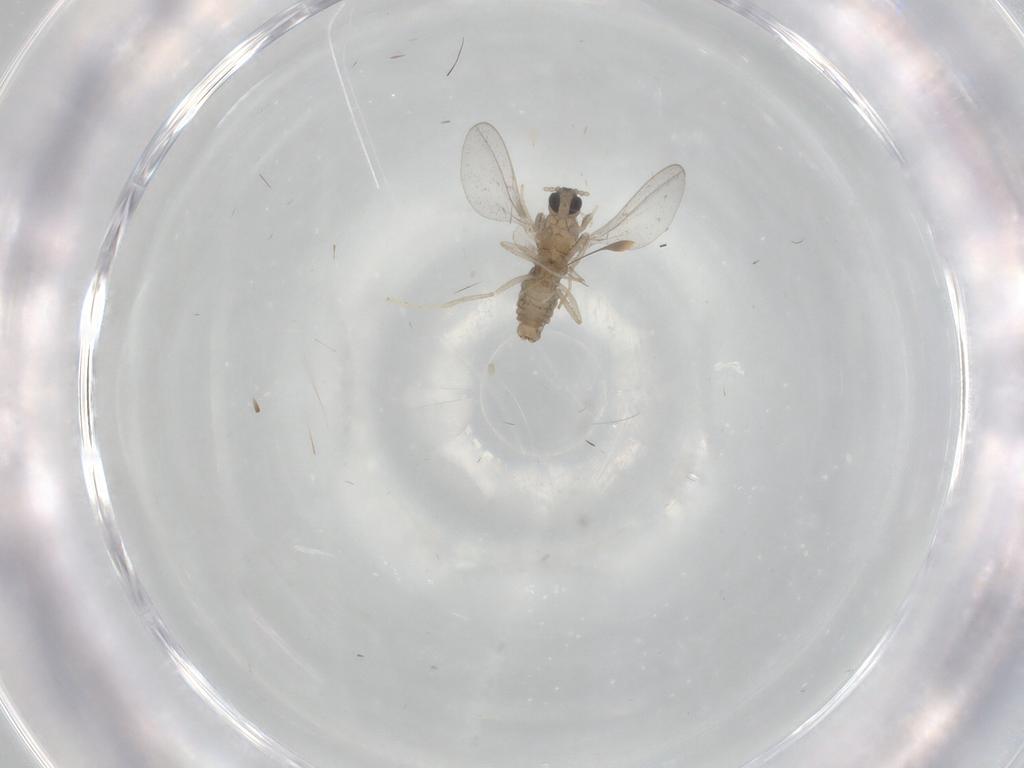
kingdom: Animalia
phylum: Arthropoda
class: Insecta
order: Diptera
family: Cecidomyiidae
